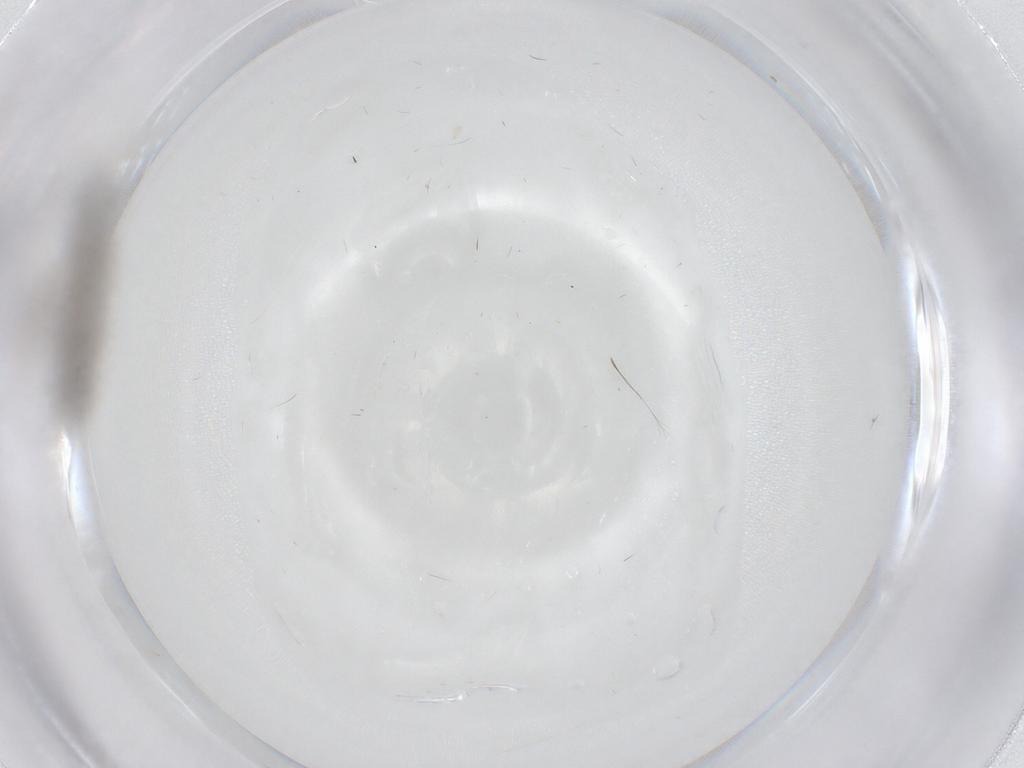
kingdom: Animalia
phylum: Arthropoda
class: Insecta
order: Diptera
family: Cecidomyiidae
